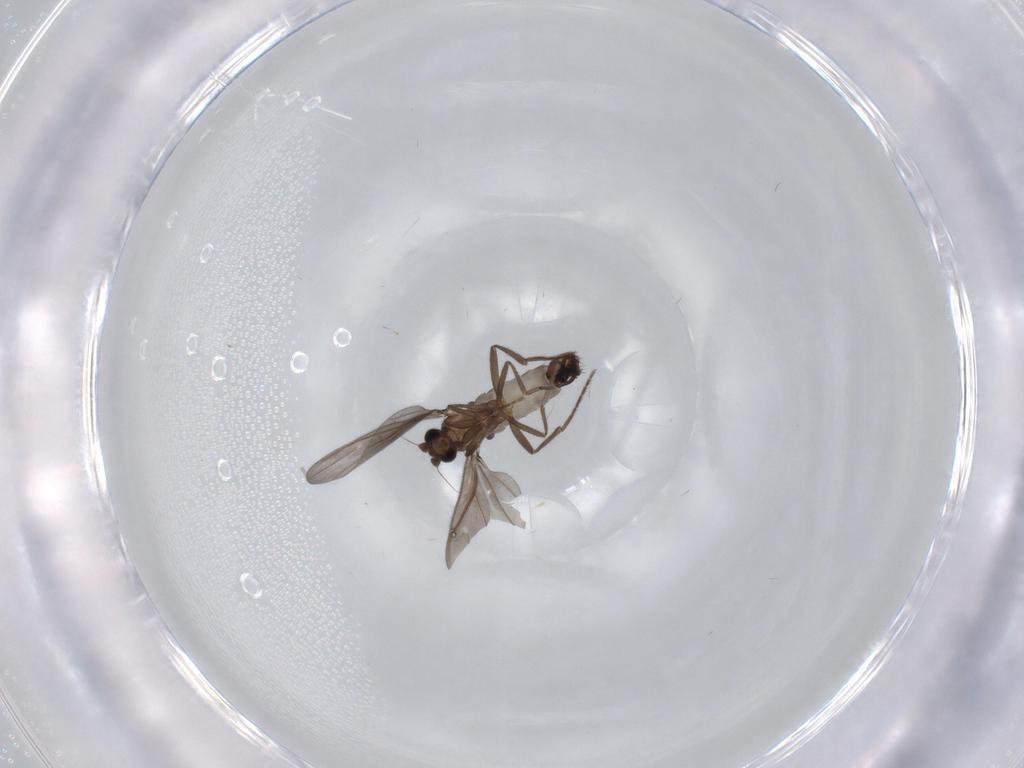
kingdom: Animalia
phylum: Arthropoda
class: Insecta
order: Diptera
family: Phoridae
